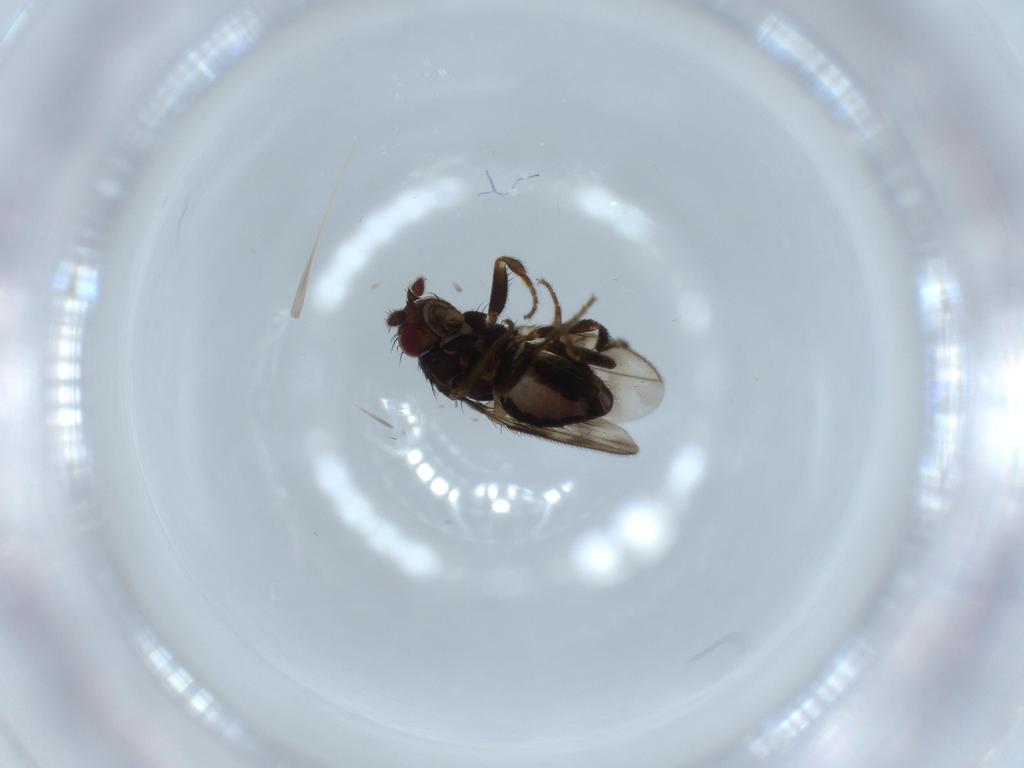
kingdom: Animalia
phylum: Arthropoda
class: Insecta
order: Diptera
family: Sphaeroceridae
